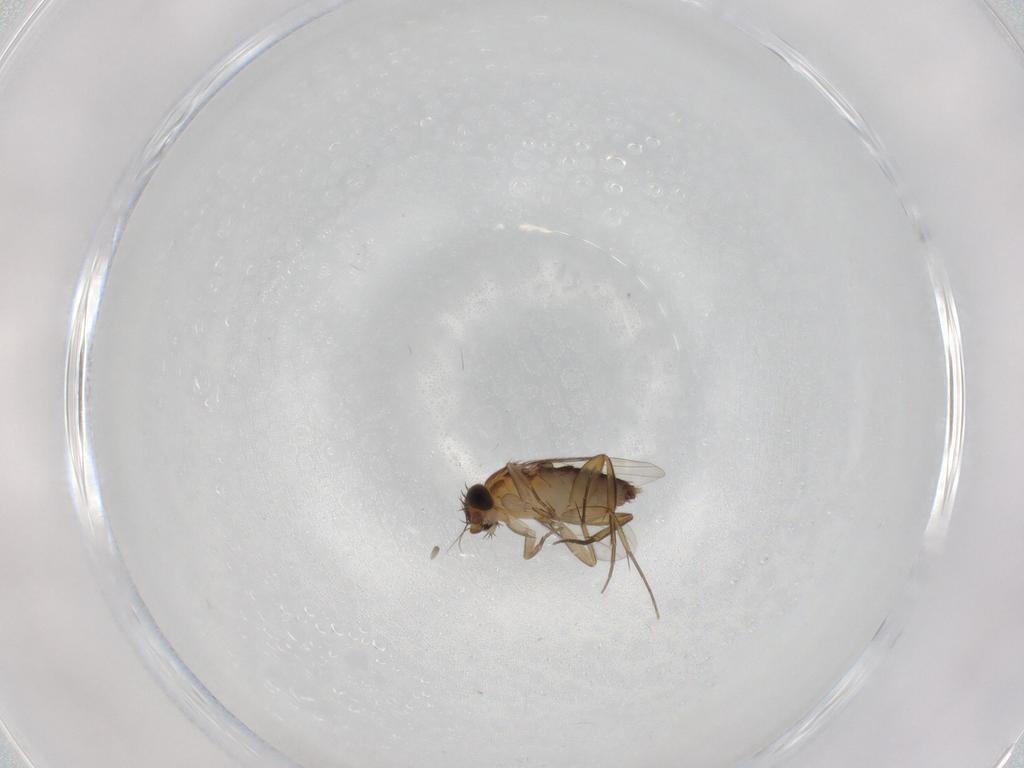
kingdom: Animalia
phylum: Arthropoda
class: Insecta
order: Diptera
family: Phoridae
